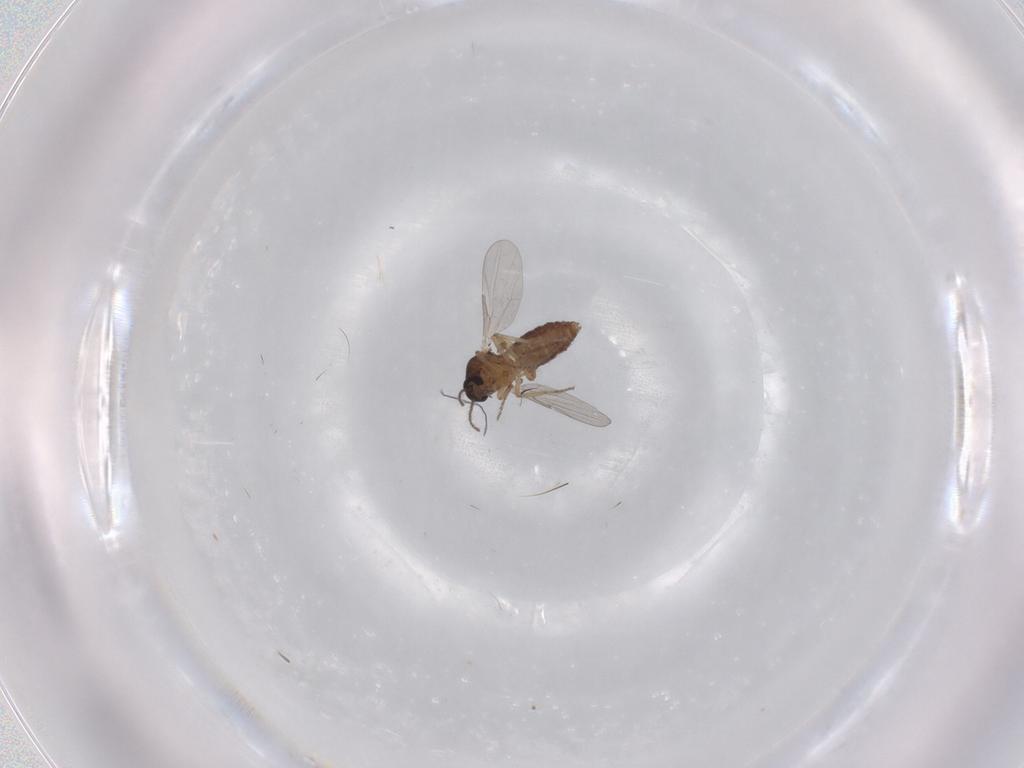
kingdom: Animalia
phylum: Arthropoda
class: Insecta
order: Diptera
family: Ceratopogonidae
